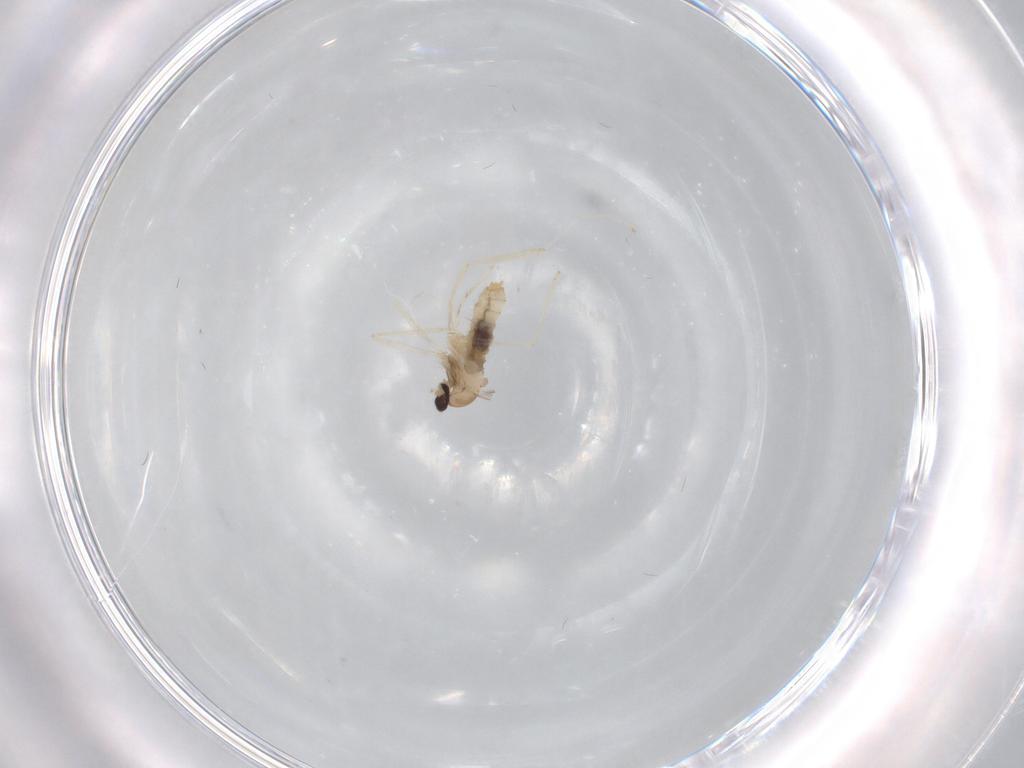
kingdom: Animalia
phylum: Arthropoda
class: Insecta
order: Diptera
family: Cecidomyiidae
